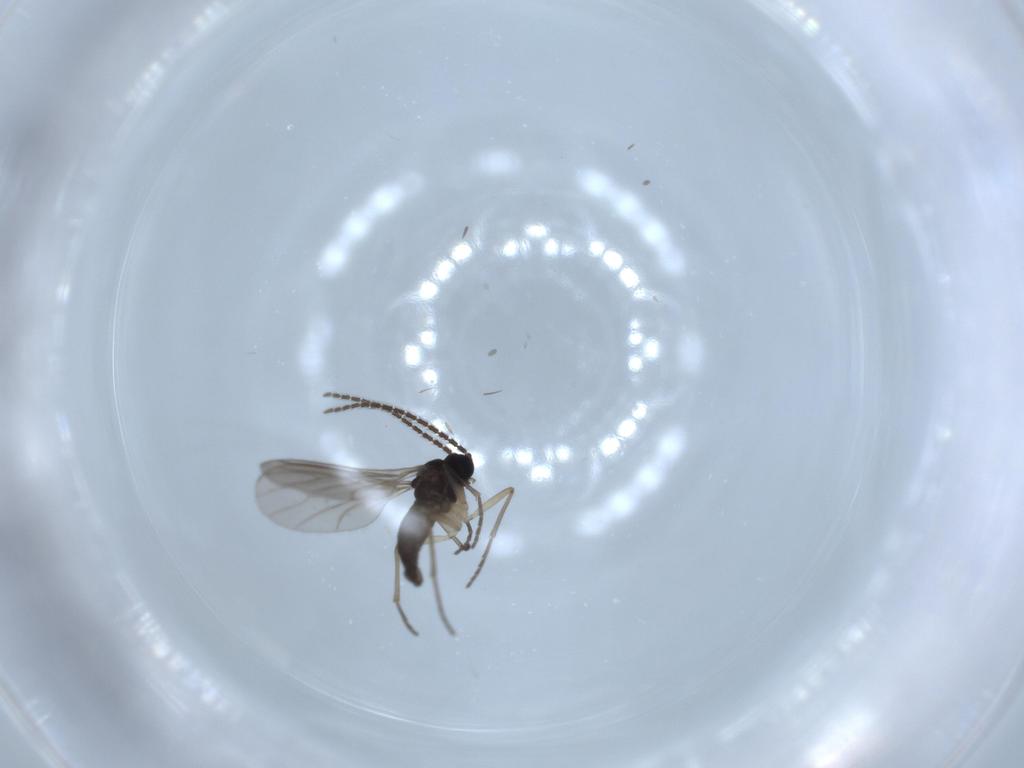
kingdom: Animalia
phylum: Arthropoda
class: Insecta
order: Diptera
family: Sciaridae
